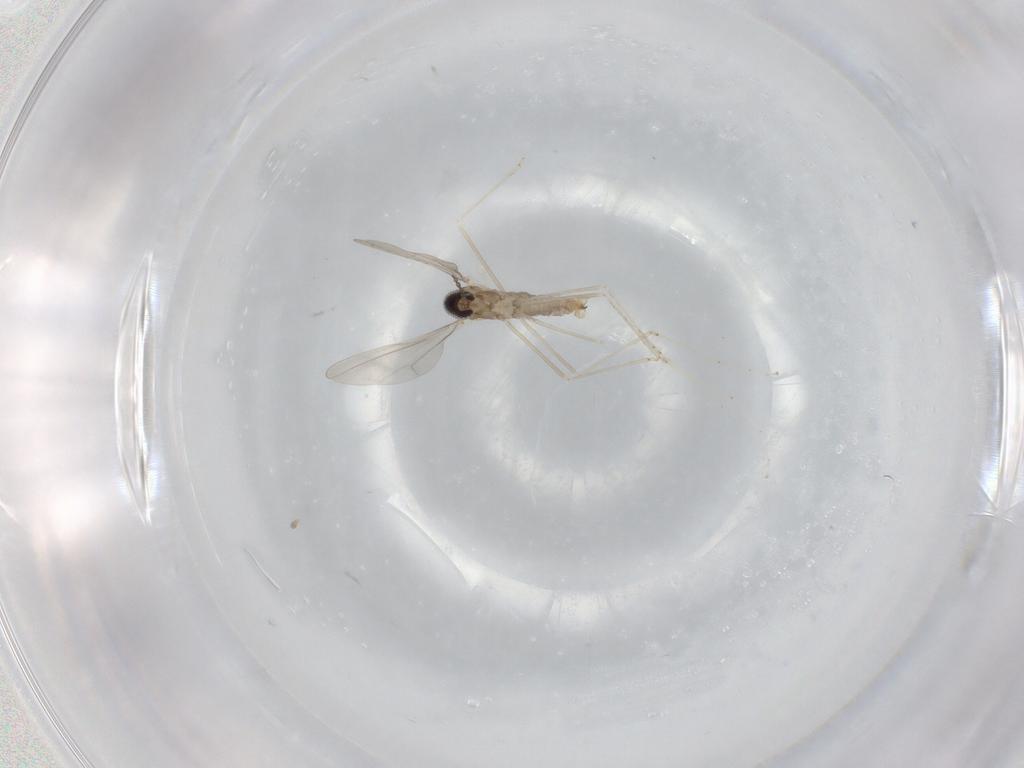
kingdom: Animalia
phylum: Arthropoda
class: Insecta
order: Diptera
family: Cecidomyiidae
